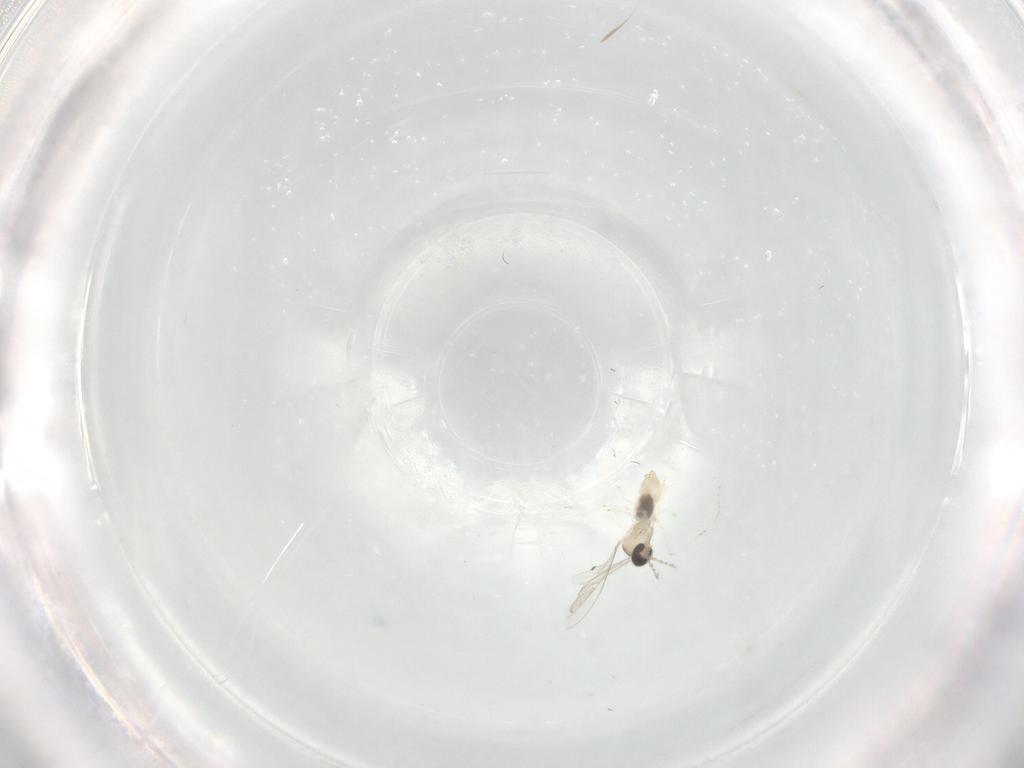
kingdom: Animalia
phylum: Arthropoda
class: Insecta
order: Diptera
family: Cecidomyiidae
